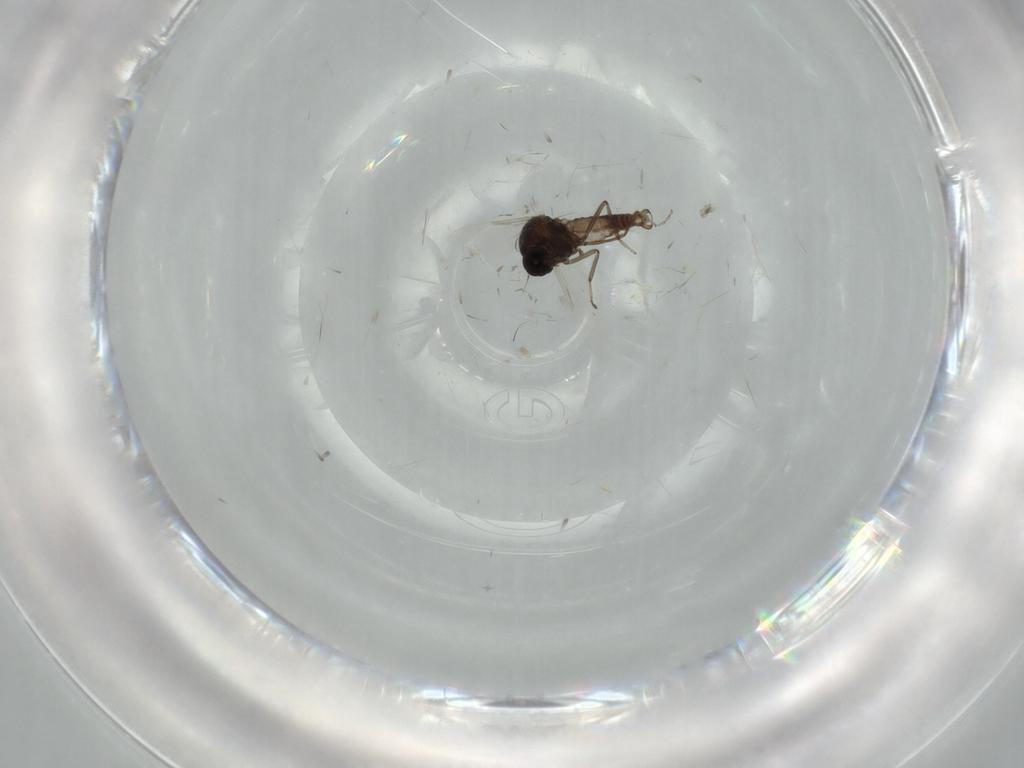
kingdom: Animalia
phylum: Arthropoda
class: Insecta
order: Diptera
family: Ceratopogonidae
